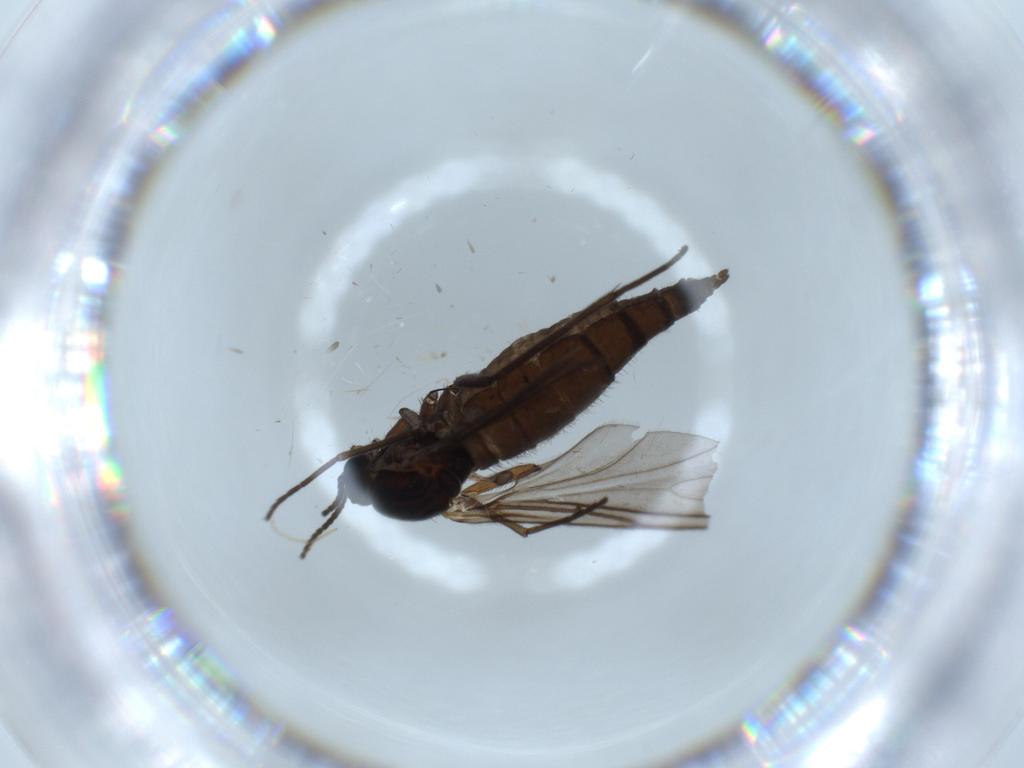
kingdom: Animalia
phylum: Arthropoda
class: Insecta
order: Diptera
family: Sciaridae
